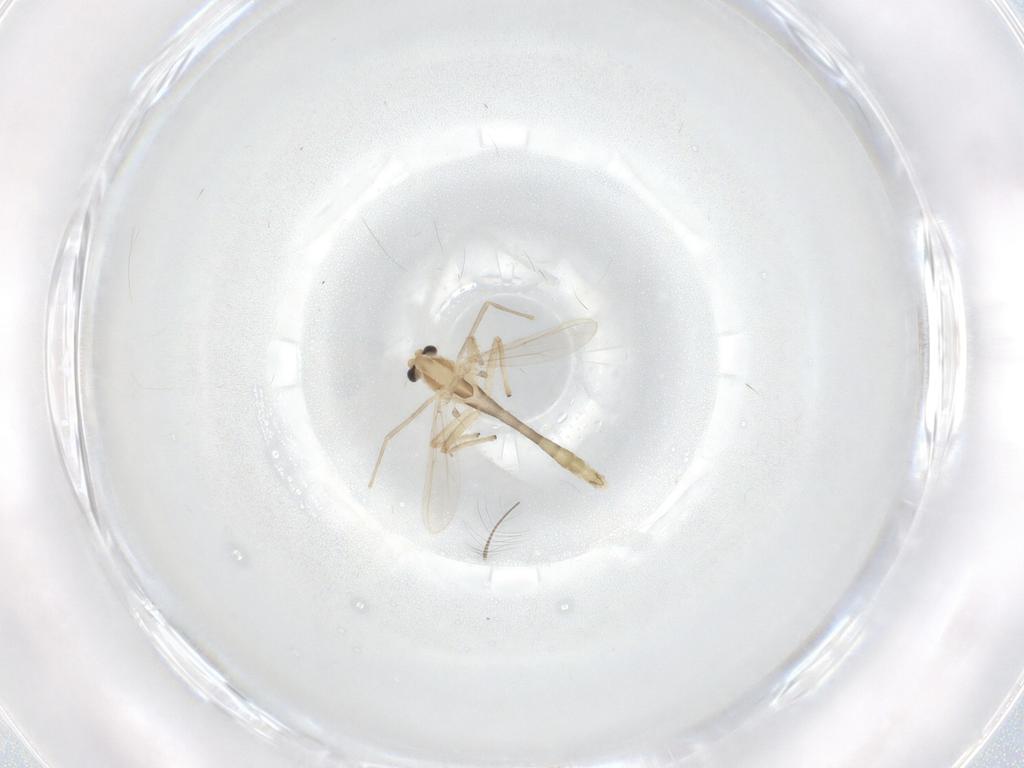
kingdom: Animalia
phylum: Arthropoda
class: Insecta
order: Diptera
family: Chironomidae
